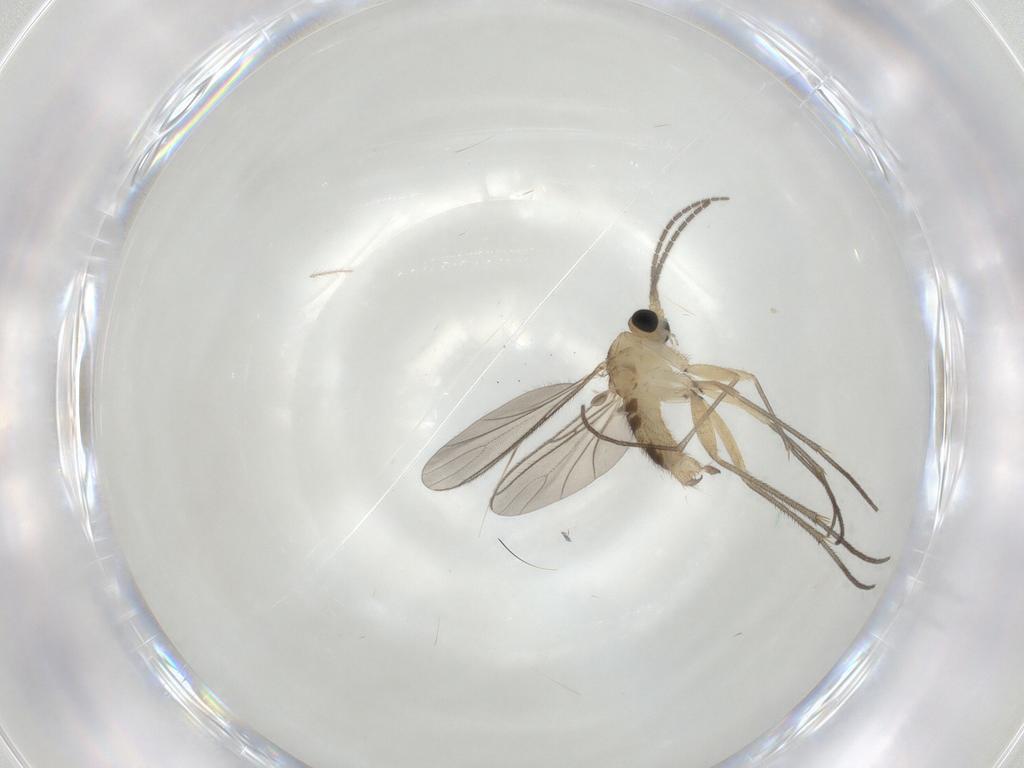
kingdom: Animalia
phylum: Arthropoda
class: Insecta
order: Diptera
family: Sciaridae
